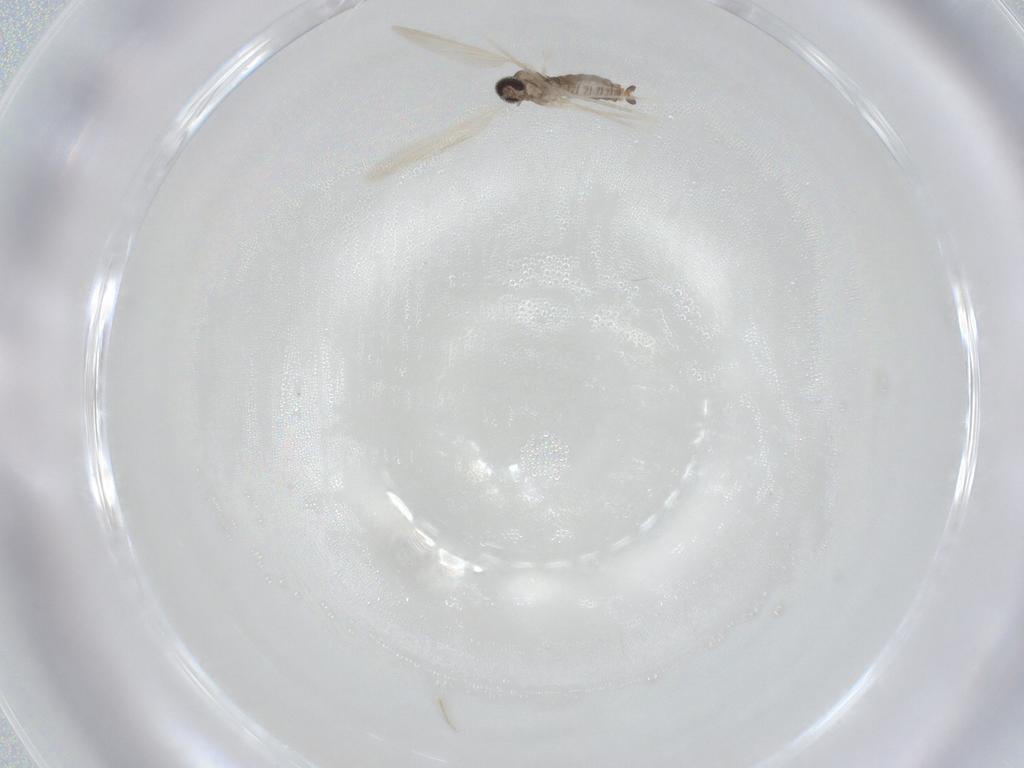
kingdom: Animalia
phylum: Arthropoda
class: Insecta
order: Diptera
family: Cecidomyiidae
